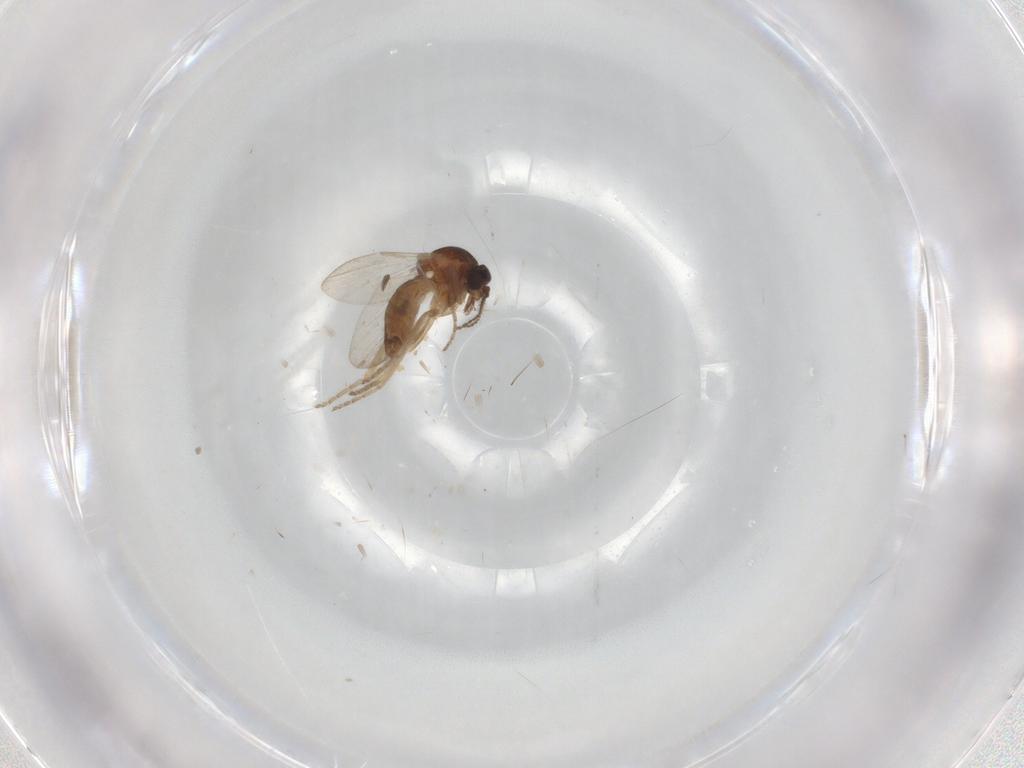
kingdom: Animalia
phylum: Arthropoda
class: Insecta
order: Diptera
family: Ceratopogonidae
